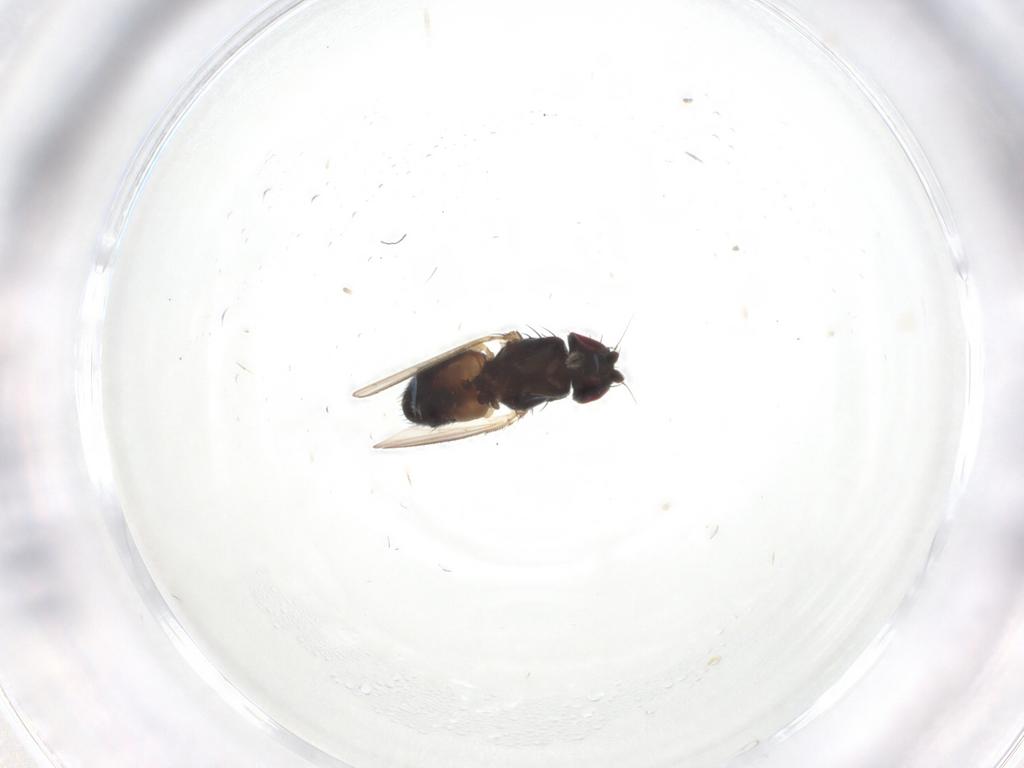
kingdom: Animalia
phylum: Arthropoda
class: Insecta
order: Diptera
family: Milichiidae
